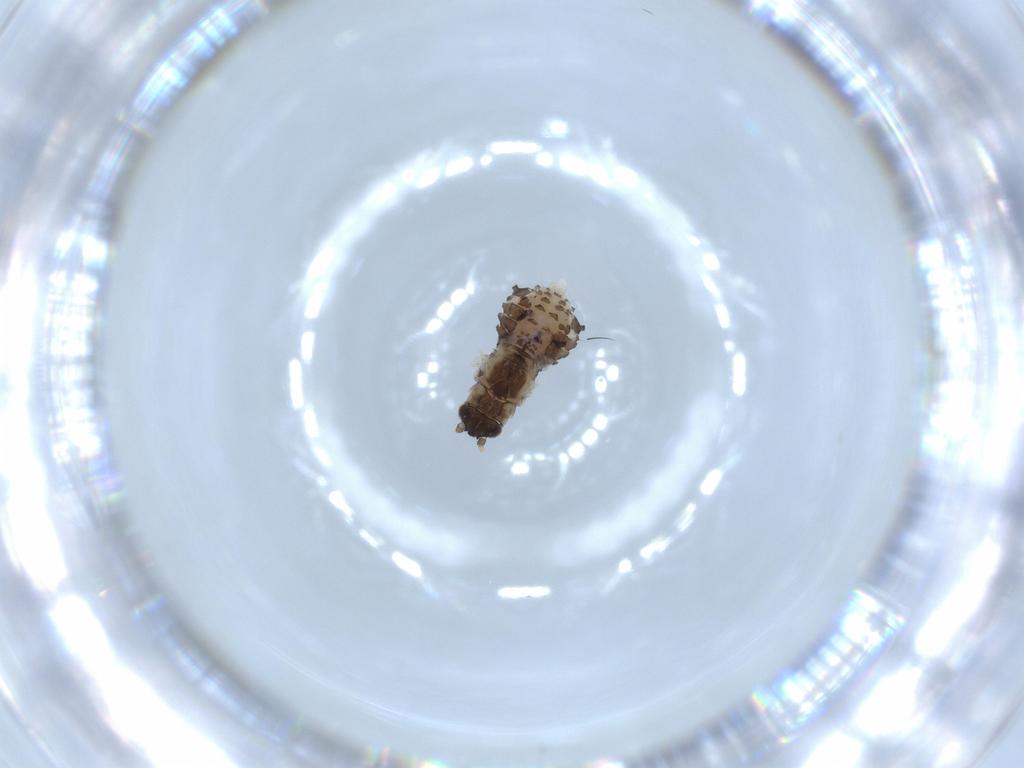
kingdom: Animalia
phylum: Arthropoda
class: Insecta
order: Hemiptera
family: Aphididae
